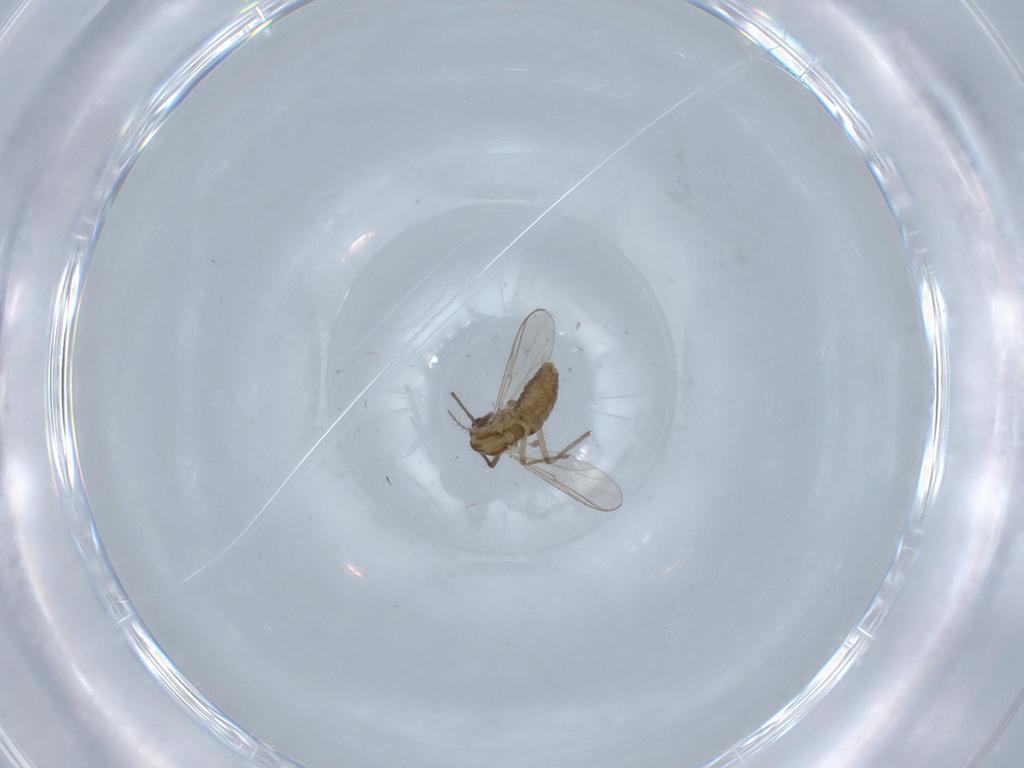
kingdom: Animalia
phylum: Arthropoda
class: Insecta
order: Diptera
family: Chironomidae
